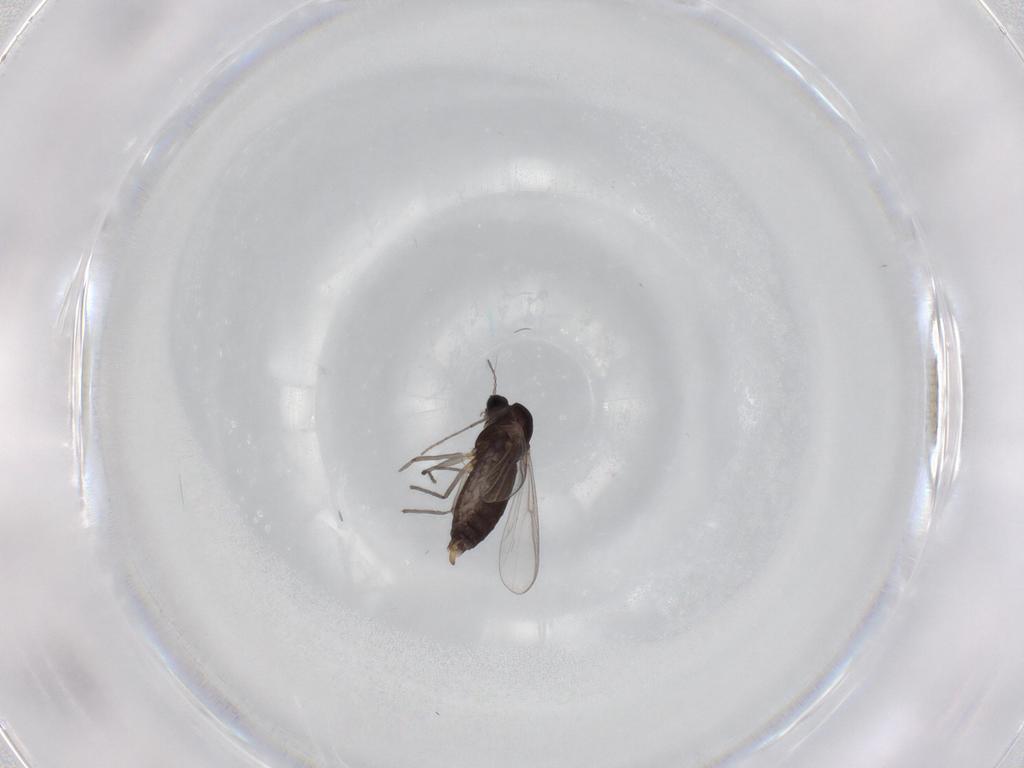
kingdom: Animalia
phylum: Arthropoda
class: Insecta
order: Diptera
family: Chironomidae
